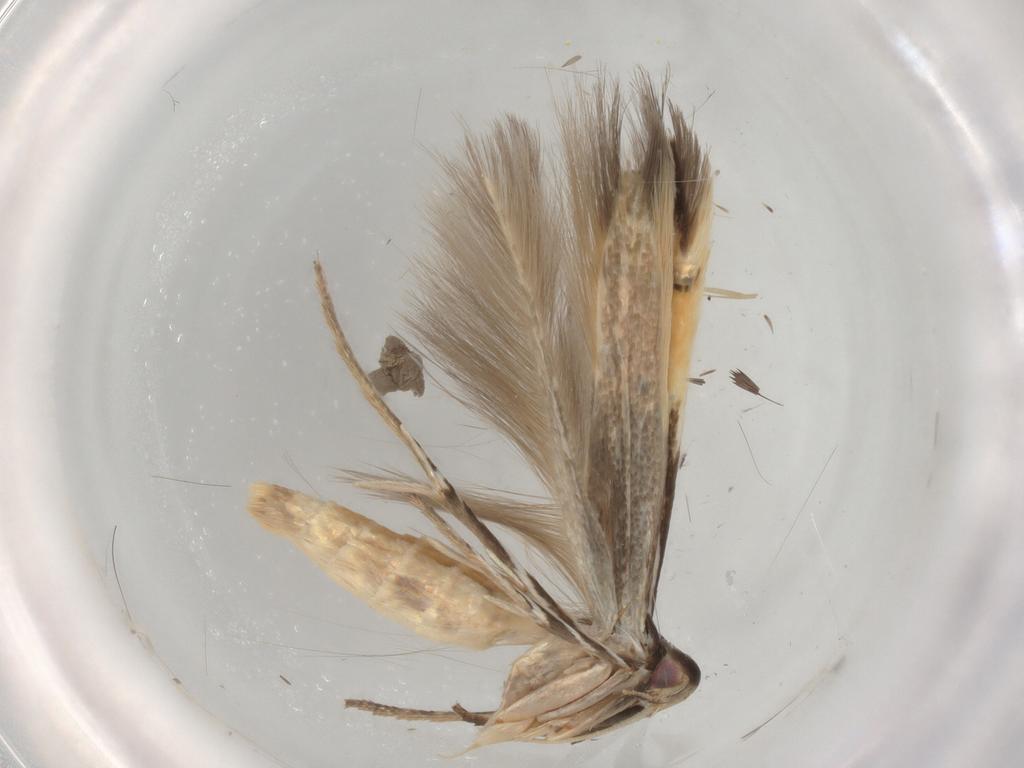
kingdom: Animalia
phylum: Arthropoda
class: Insecta
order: Lepidoptera
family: Cosmopterigidae
